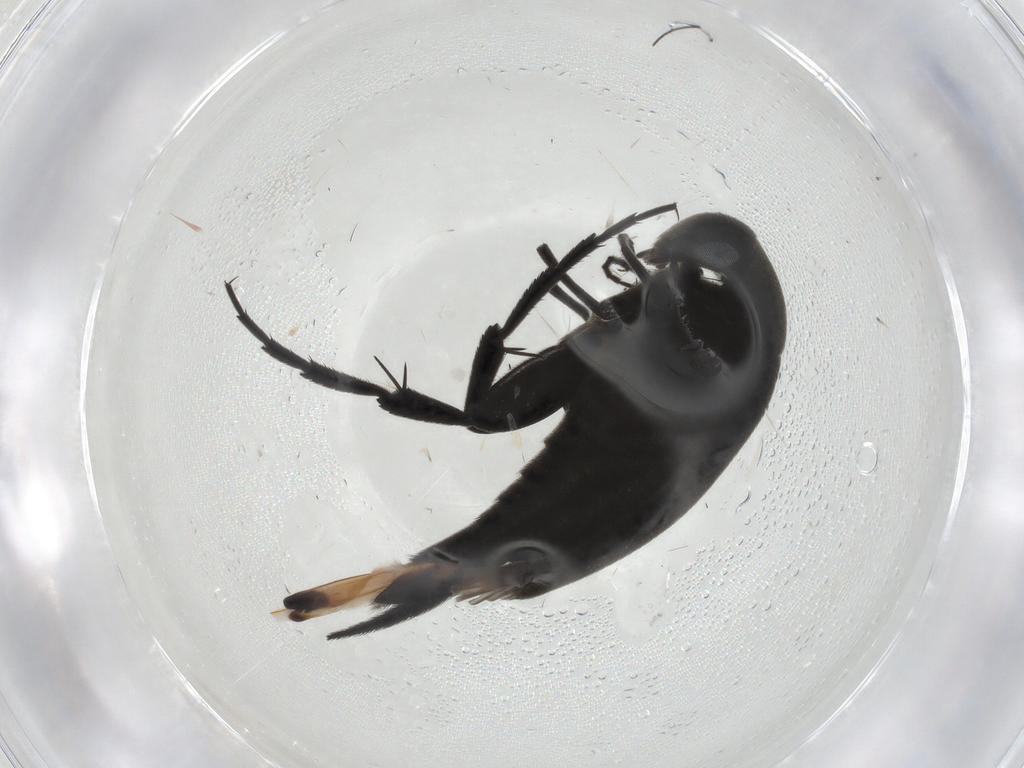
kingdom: Animalia
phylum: Arthropoda
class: Insecta
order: Coleoptera
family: Mordellidae
